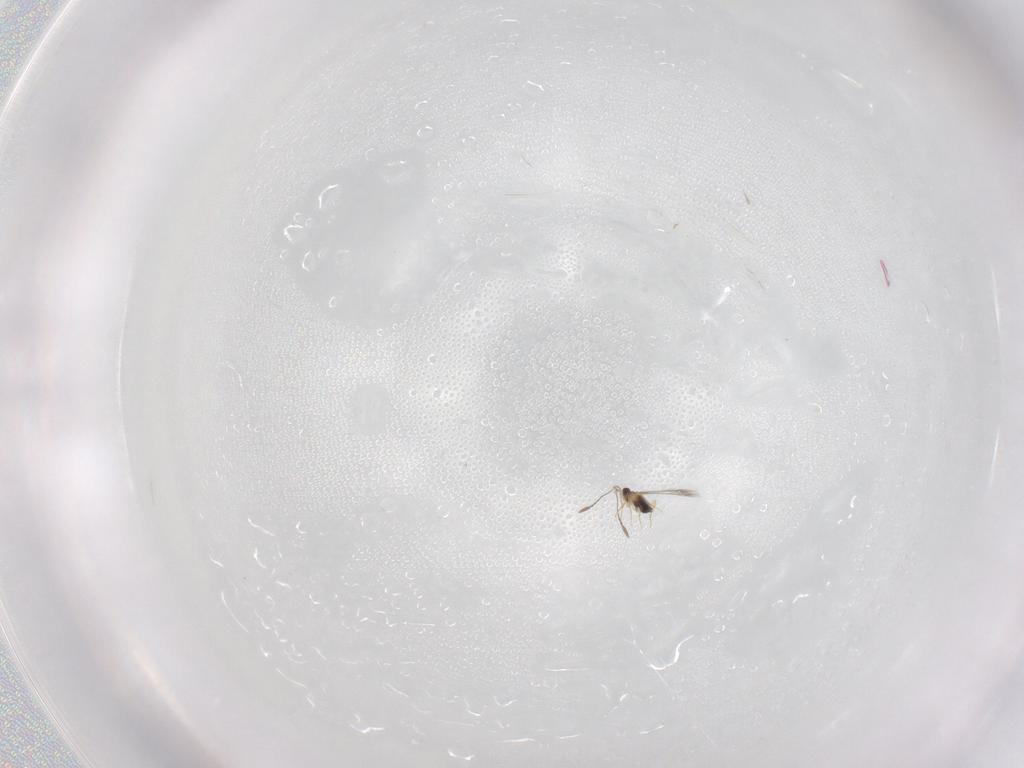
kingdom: Animalia
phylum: Arthropoda
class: Insecta
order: Hymenoptera
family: Mymaridae
